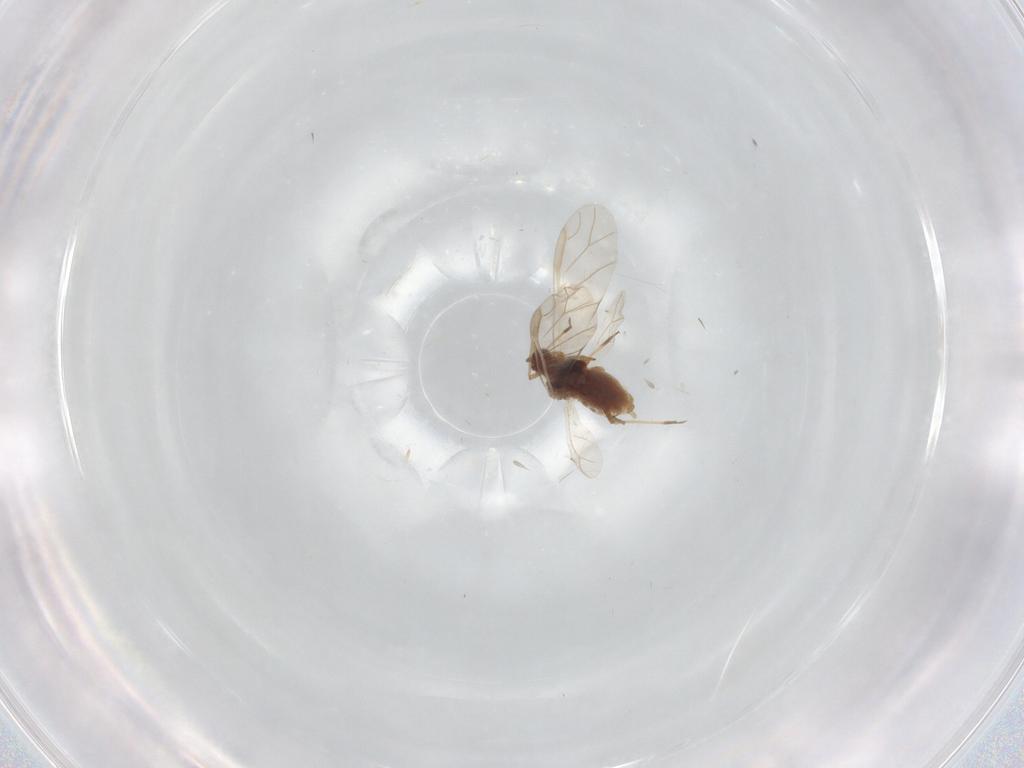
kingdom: Animalia
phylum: Arthropoda
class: Insecta
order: Hemiptera
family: Aphididae
